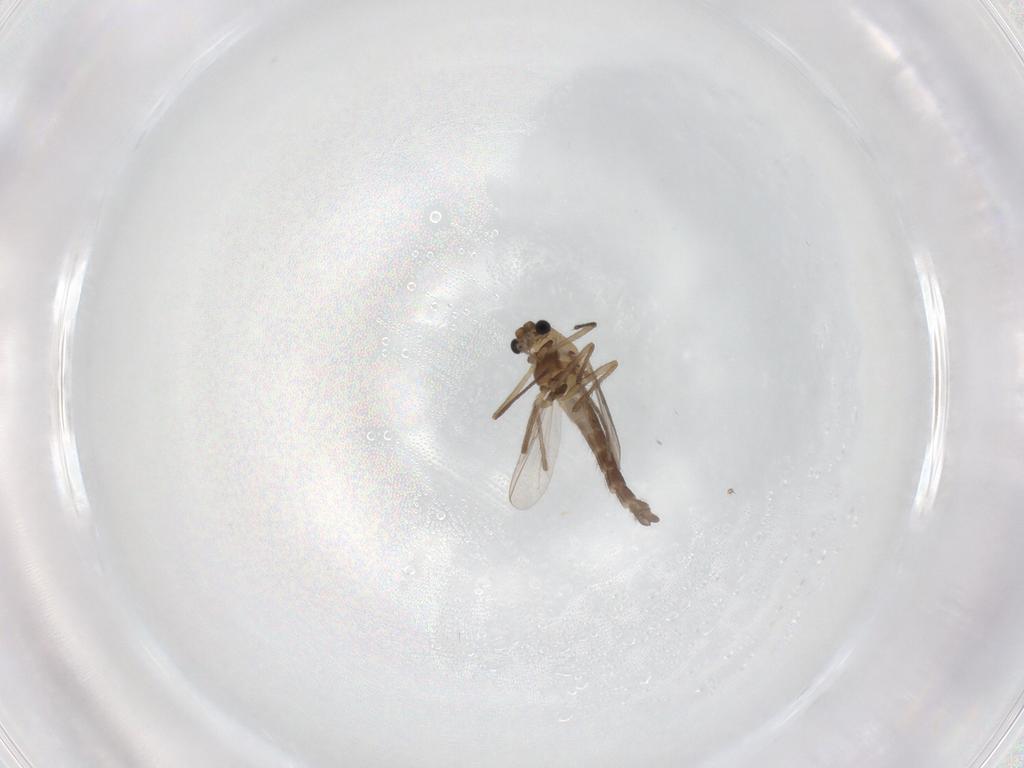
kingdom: Animalia
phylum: Arthropoda
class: Insecta
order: Diptera
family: Chironomidae
